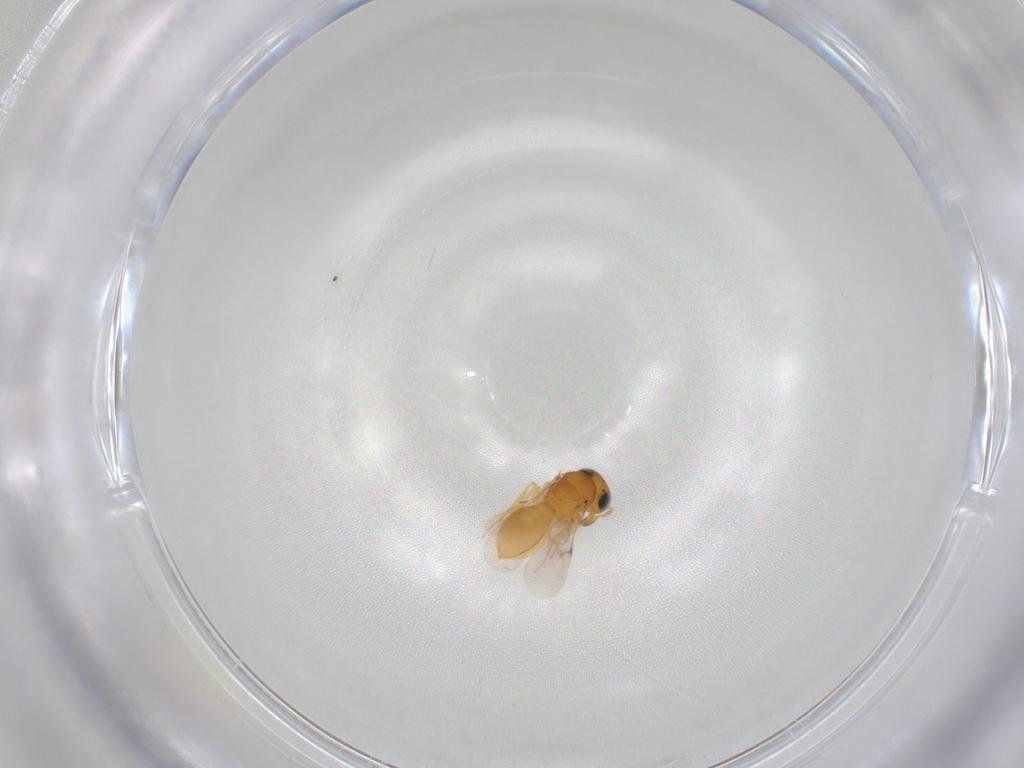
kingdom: Animalia
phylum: Arthropoda
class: Insecta
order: Hymenoptera
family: Scelionidae
